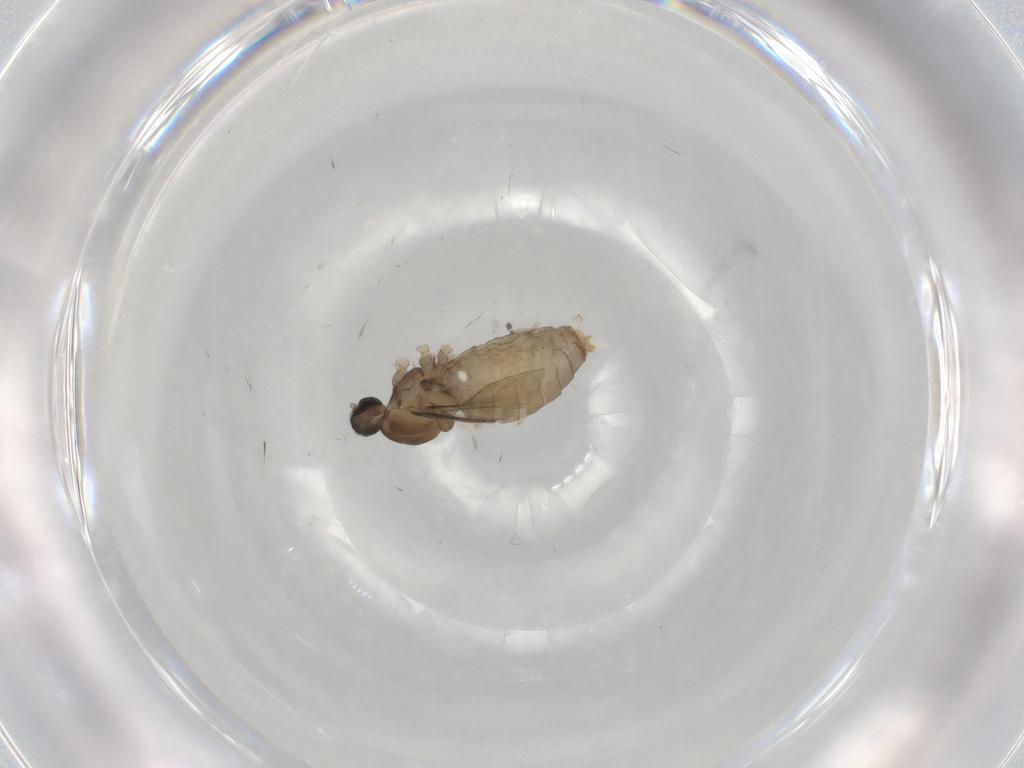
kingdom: Animalia
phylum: Arthropoda
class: Insecta
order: Diptera
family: Cecidomyiidae
